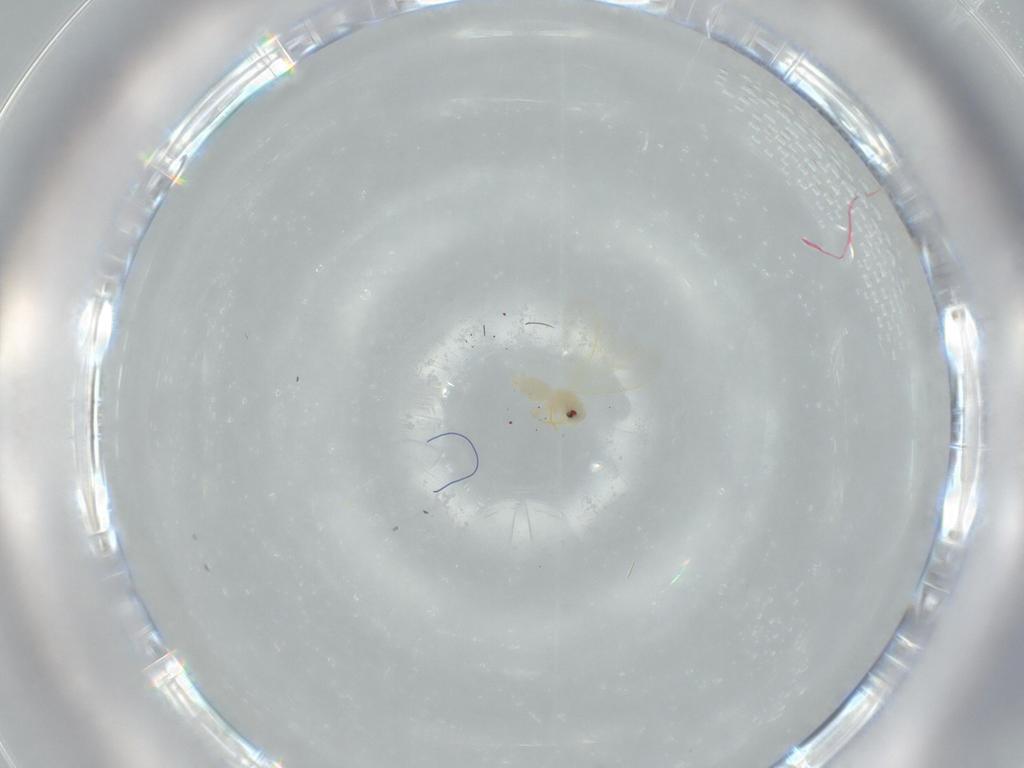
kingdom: Animalia
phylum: Arthropoda
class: Insecta
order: Hemiptera
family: Aleyrodidae
